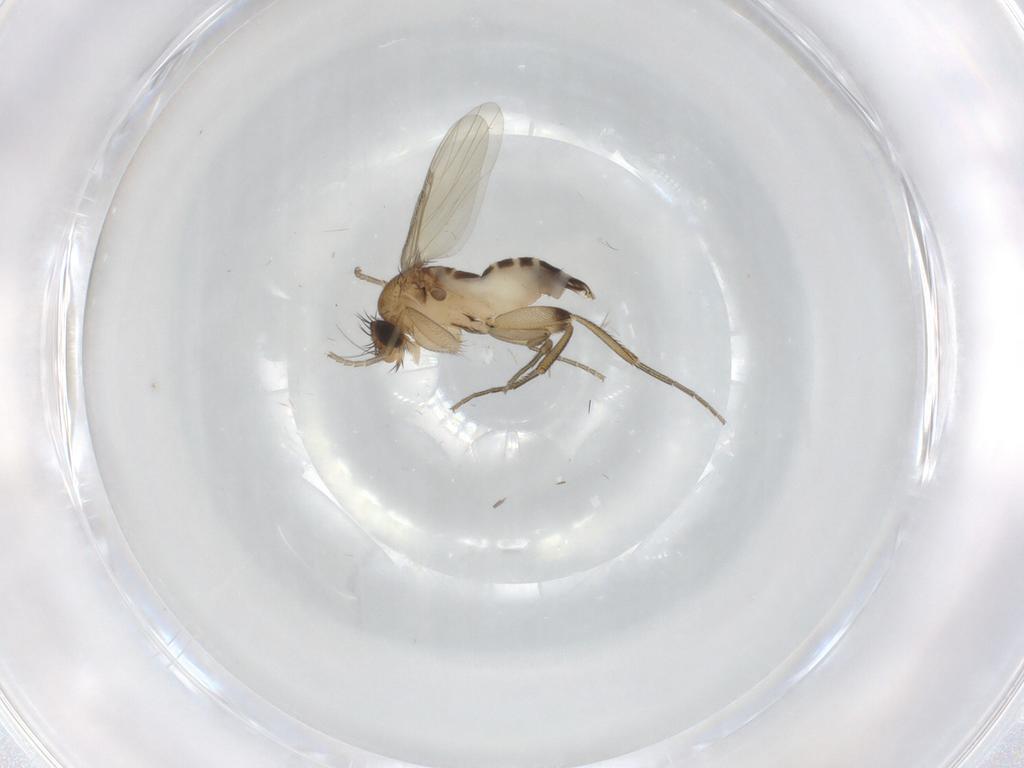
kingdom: Animalia
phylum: Arthropoda
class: Insecta
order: Diptera
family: Phoridae
